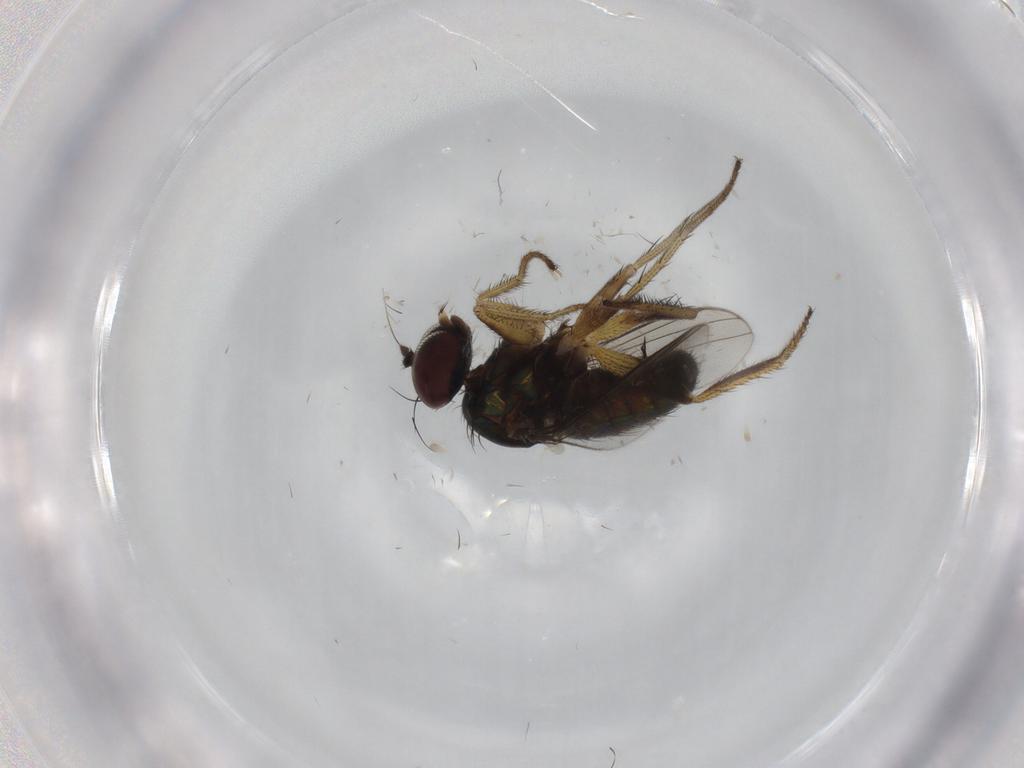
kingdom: Animalia
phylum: Arthropoda
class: Insecta
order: Diptera
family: Dolichopodidae
